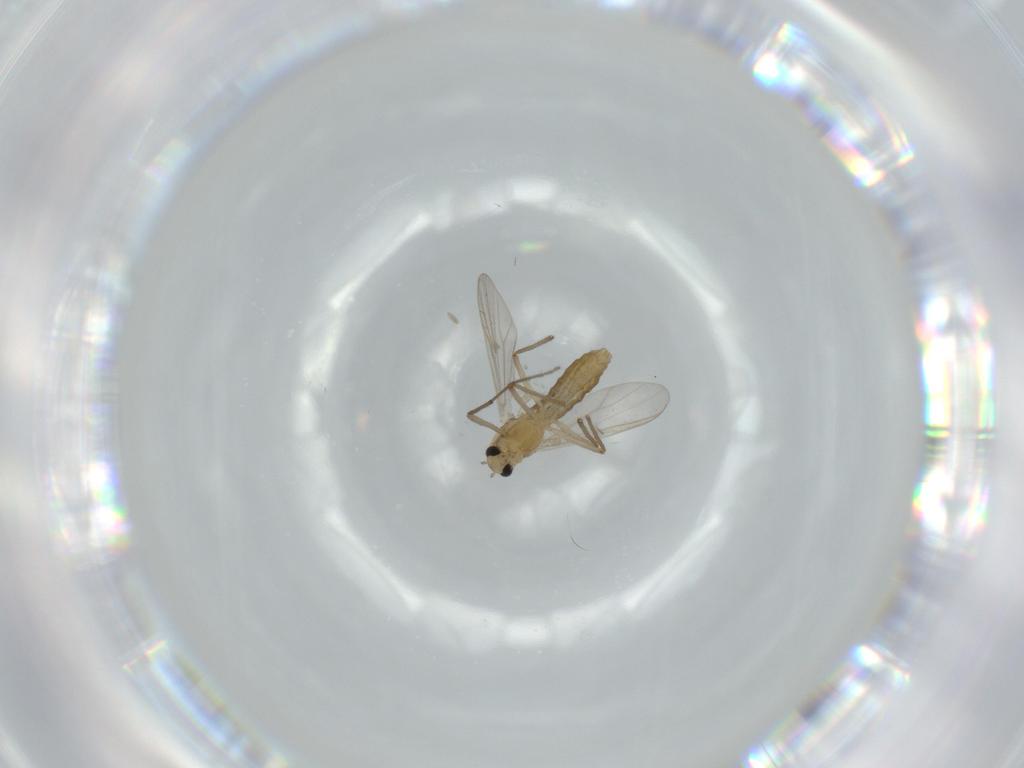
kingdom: Animalia
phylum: Arthropoda
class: Insecta
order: Diptera
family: Chironomidae
